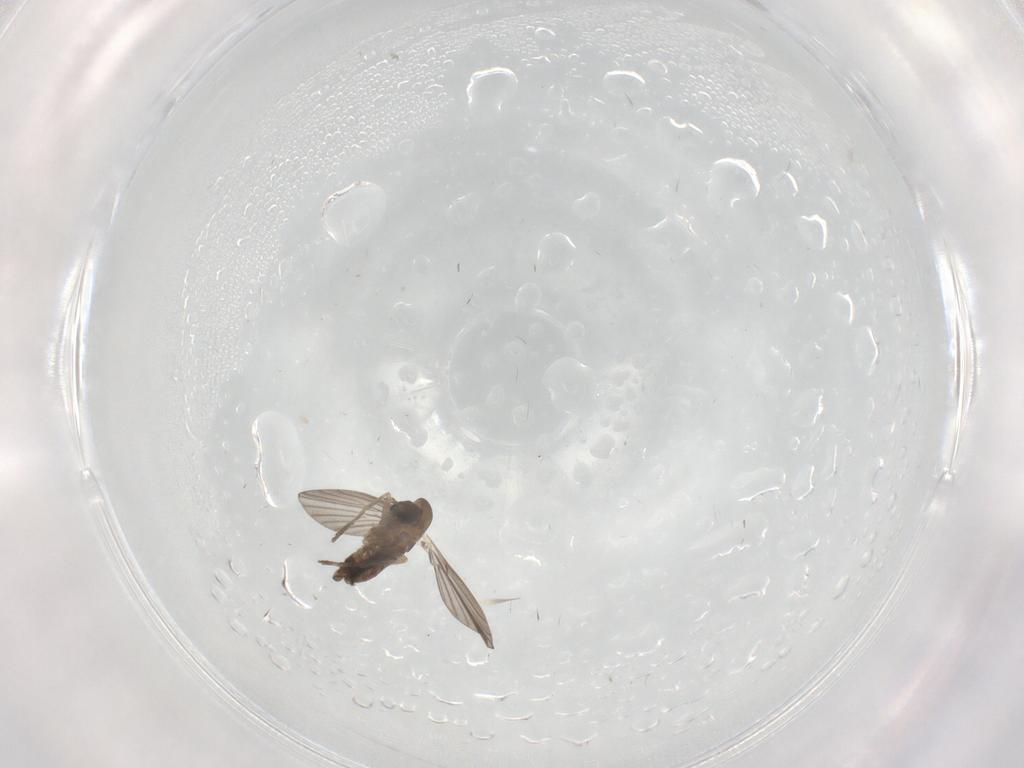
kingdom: Animalia
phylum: Arthropoda
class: Insecta
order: Diptera
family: Phoridae
